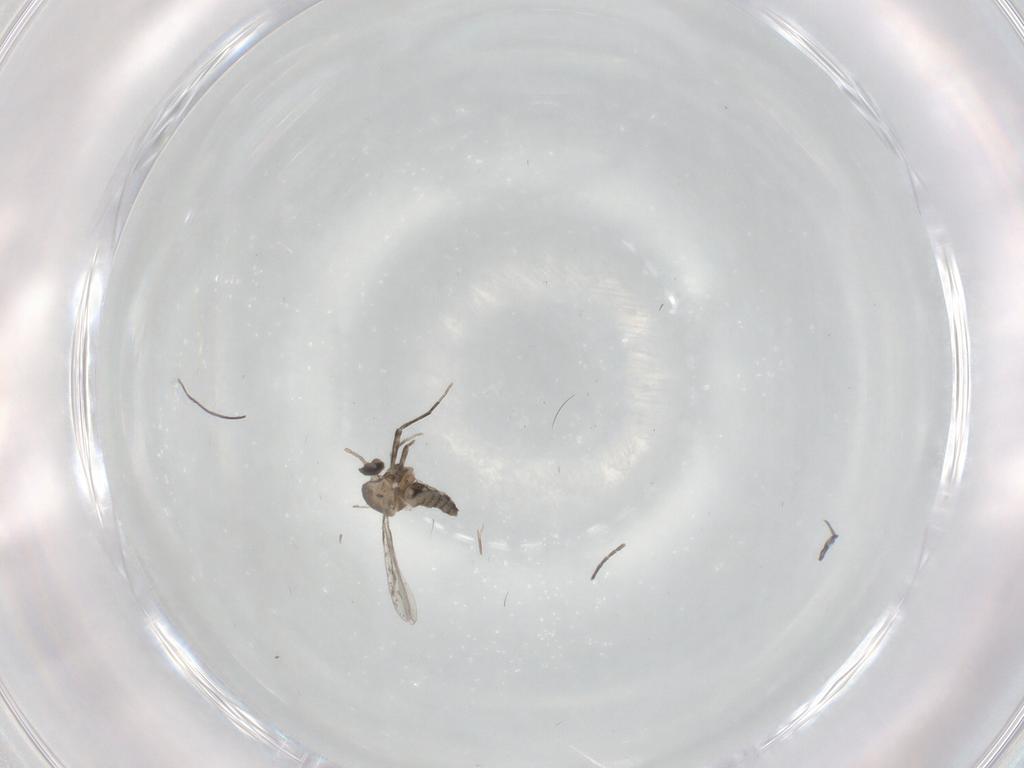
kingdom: Animalia
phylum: Arthropoda
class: Insecta
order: Diptera
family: Cecidomyiidae
